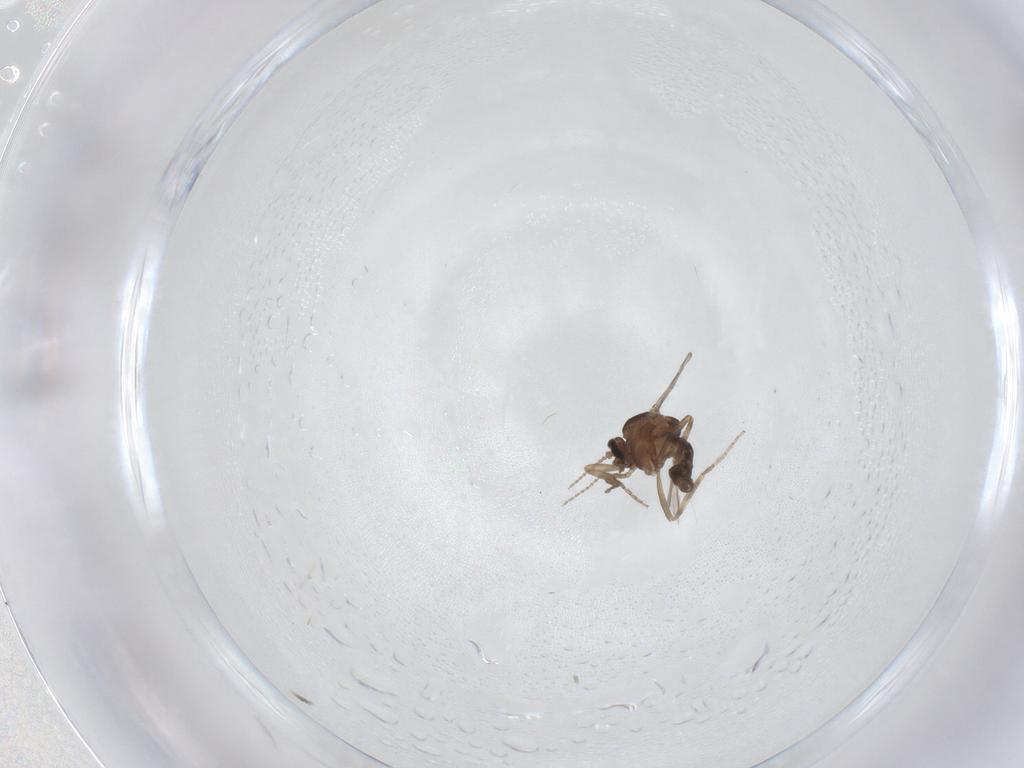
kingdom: Animalia
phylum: Arthropoda
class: Insecta
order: Diptera
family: Ceratopogonidae
